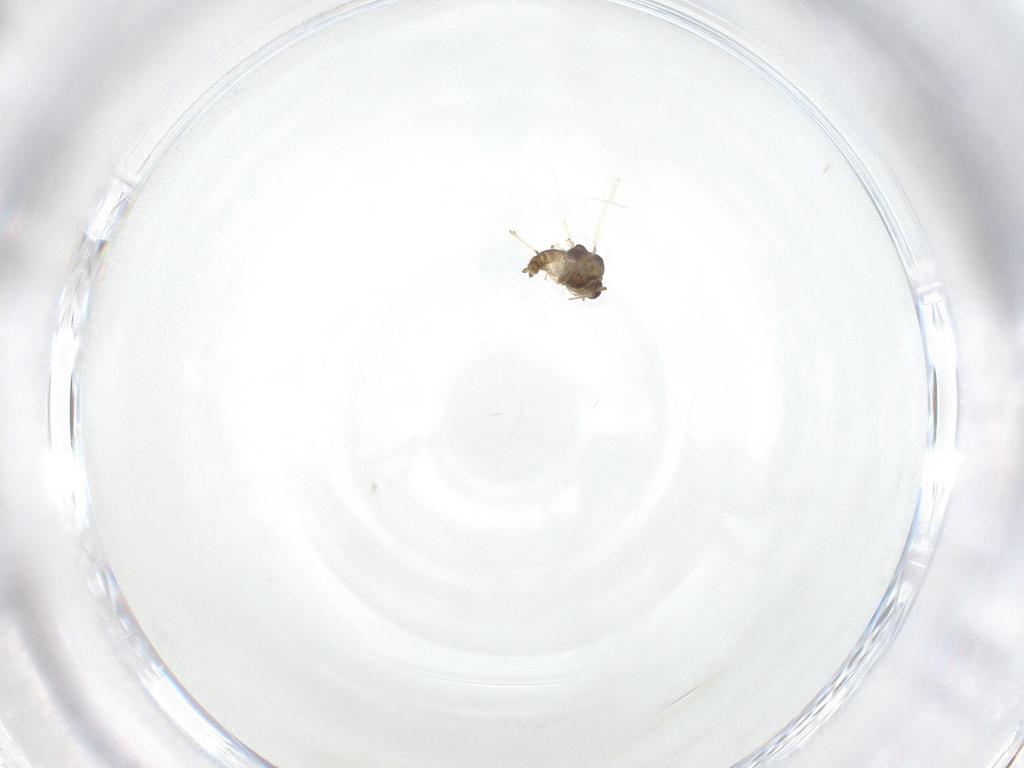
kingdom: Animalia
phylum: Arthropoda
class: Insecta
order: Diptera
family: Chironomidae
